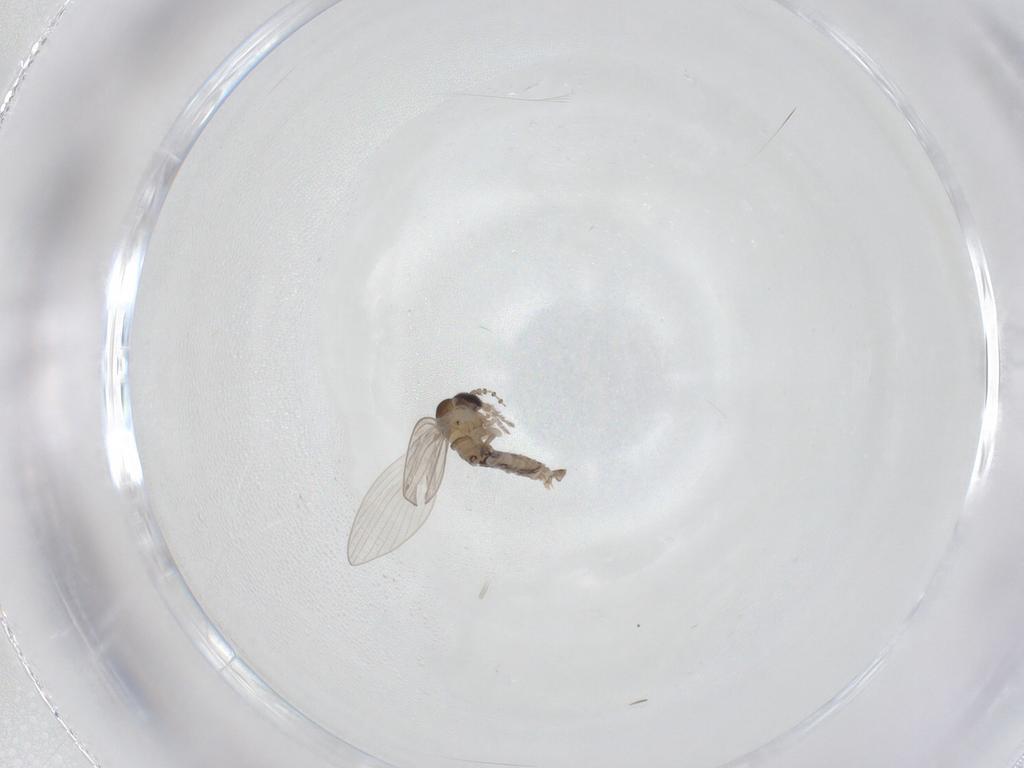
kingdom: Animalia
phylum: Arthropoda
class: Insecta
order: Diptera
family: Psychodidae
